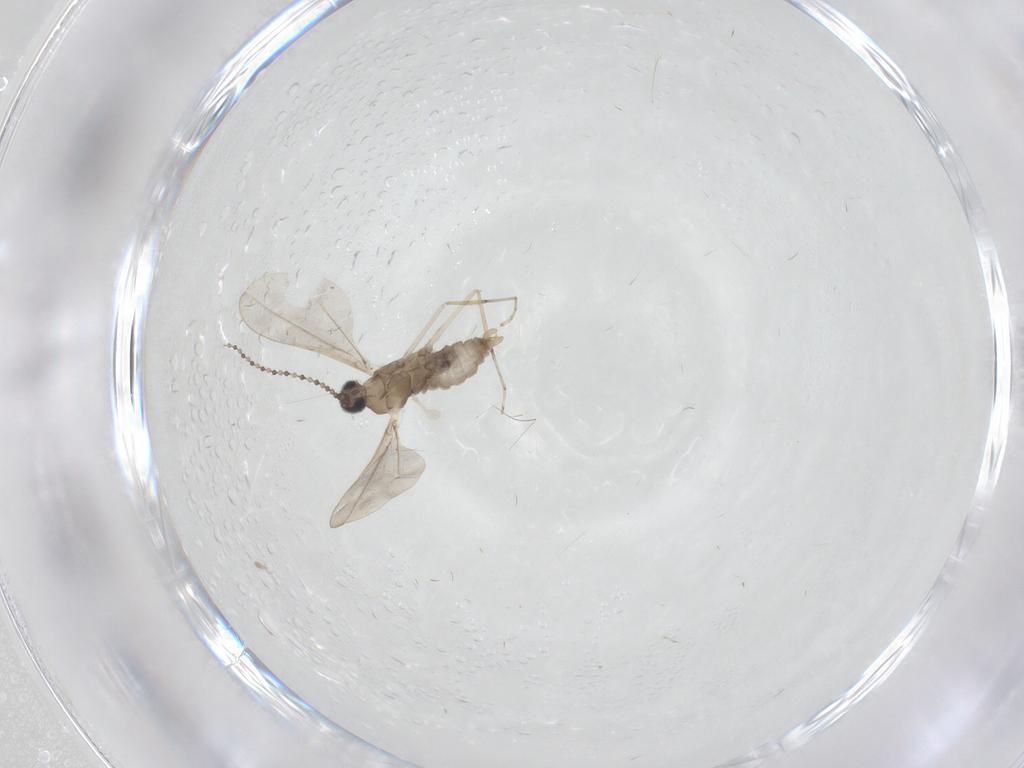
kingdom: Animalia
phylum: Arthropoda
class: Insecta
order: Diptera
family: Cecidomyiidae
